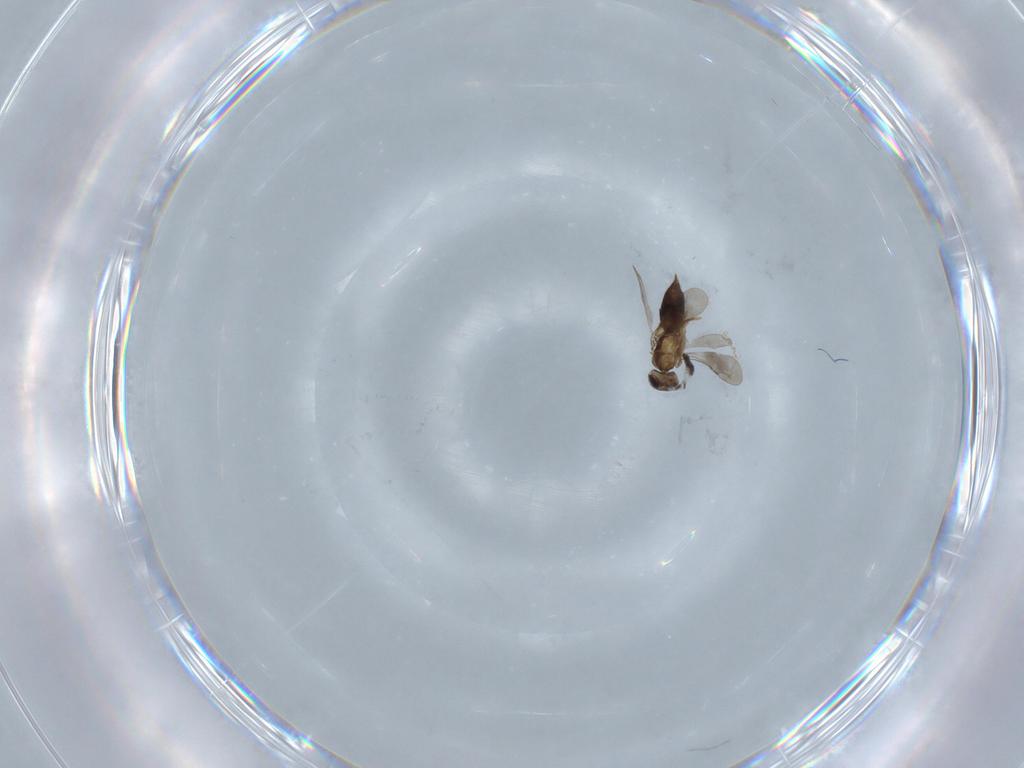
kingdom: Animalia
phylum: Arthropoda
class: Insecta
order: Hymenoptera
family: Ceraphronidae
